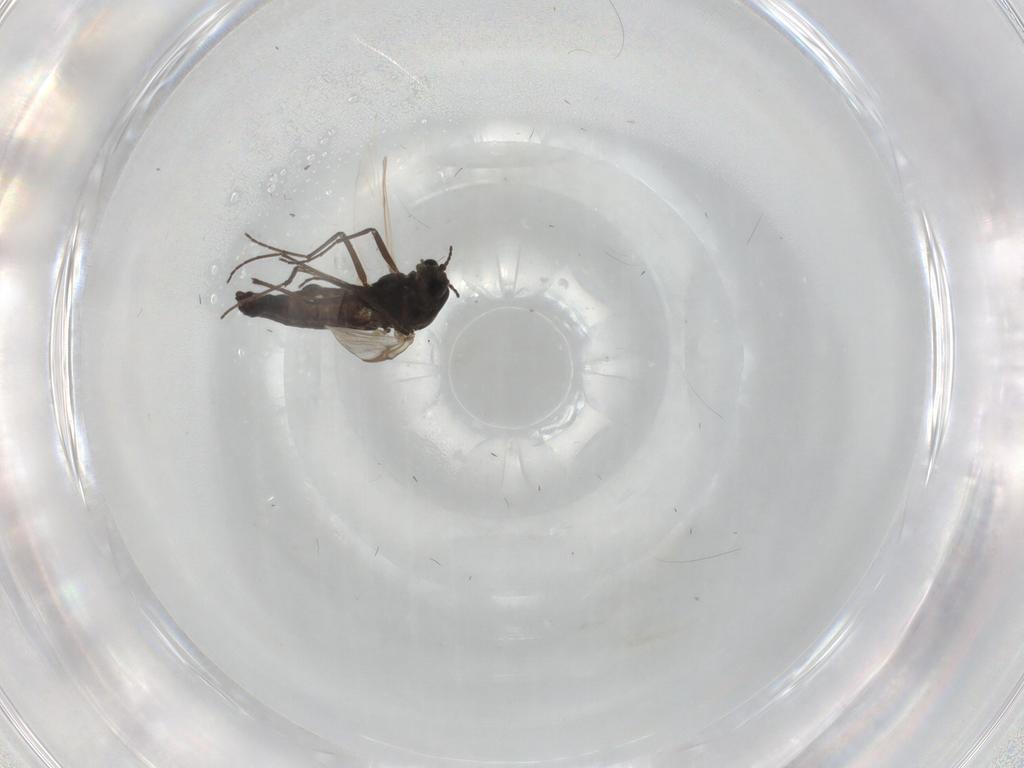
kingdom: Animalia
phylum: Arthropoda
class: Insecta
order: Diptera
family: Chironomidae
